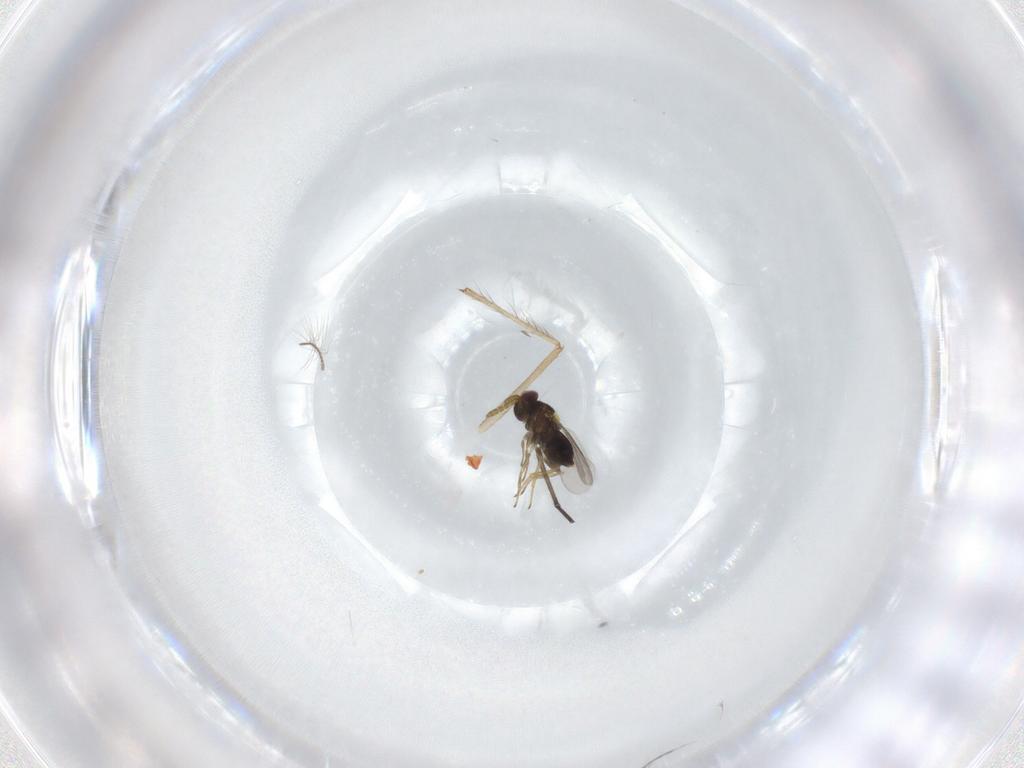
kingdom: Animalia
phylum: Arthropoda
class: Insecta
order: Hymenoptera
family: Aphelinidae
